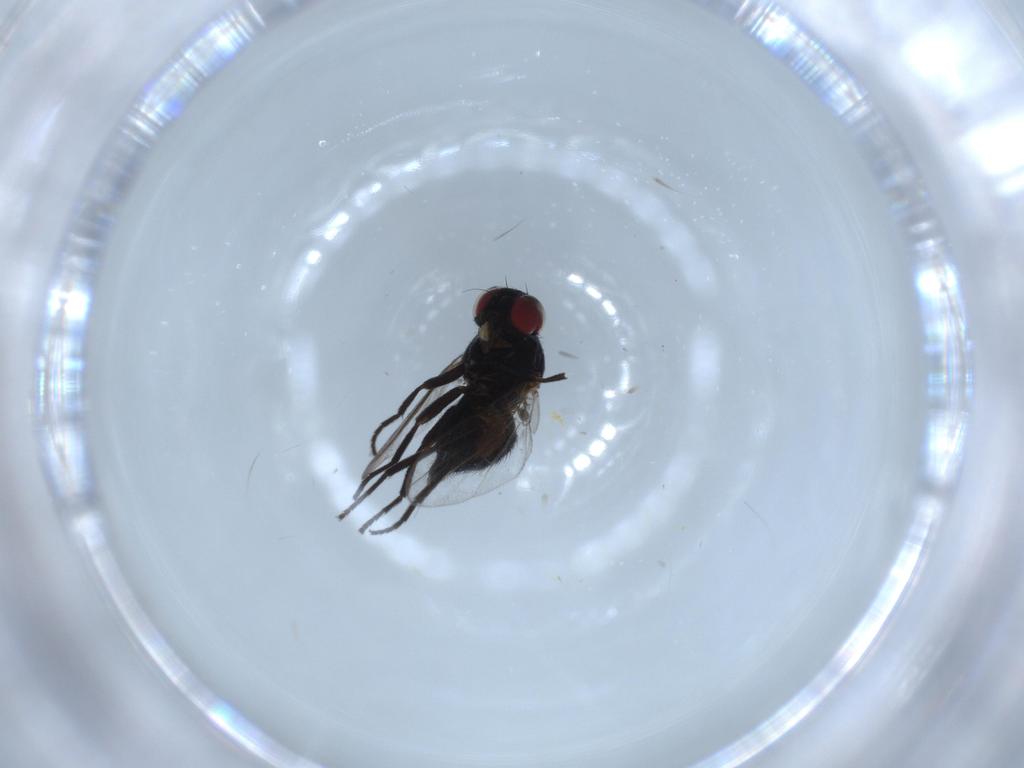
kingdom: Animalia
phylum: Arthropoda
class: Insecta
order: Diptera
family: Agromyzidae
